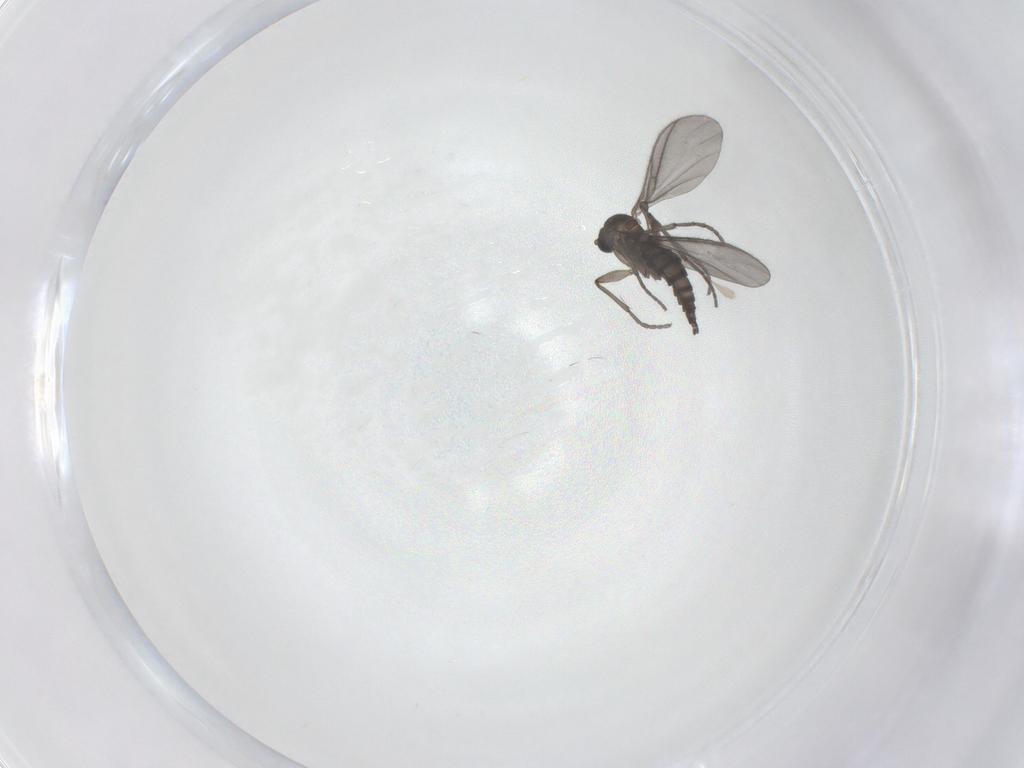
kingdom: Animalia
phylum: Arthropoda
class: Insecta
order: Diptera
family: Sciaridae
